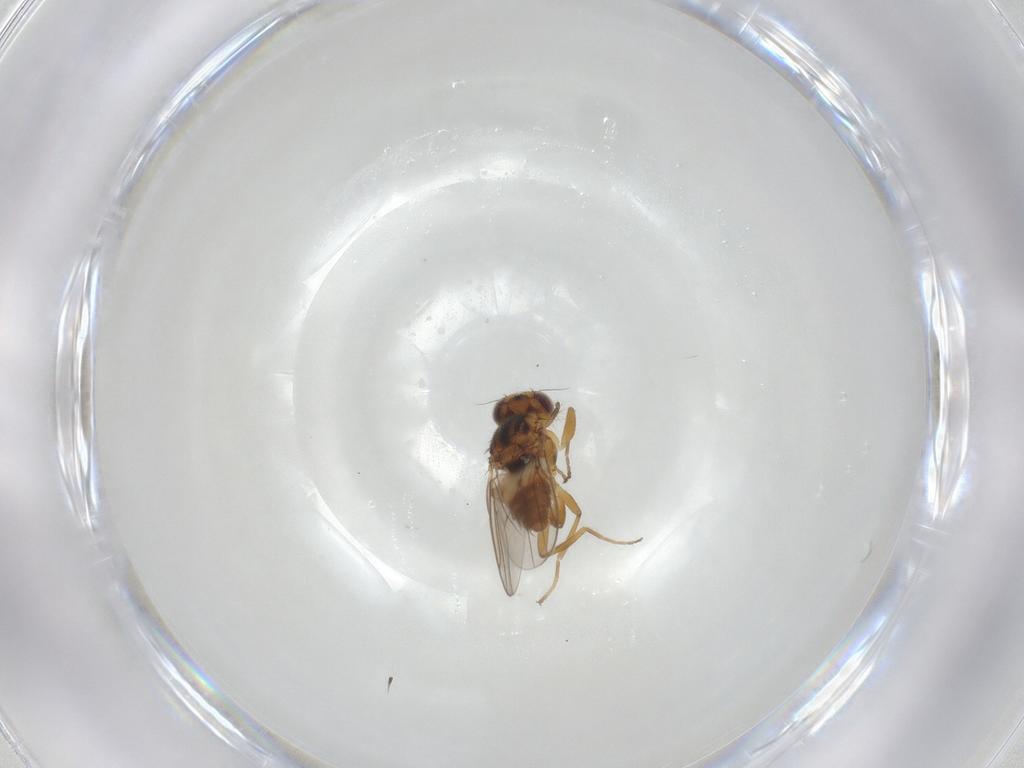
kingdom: Animalia
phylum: Arthropoda
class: Insecta
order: Diptera
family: Chloropidae
